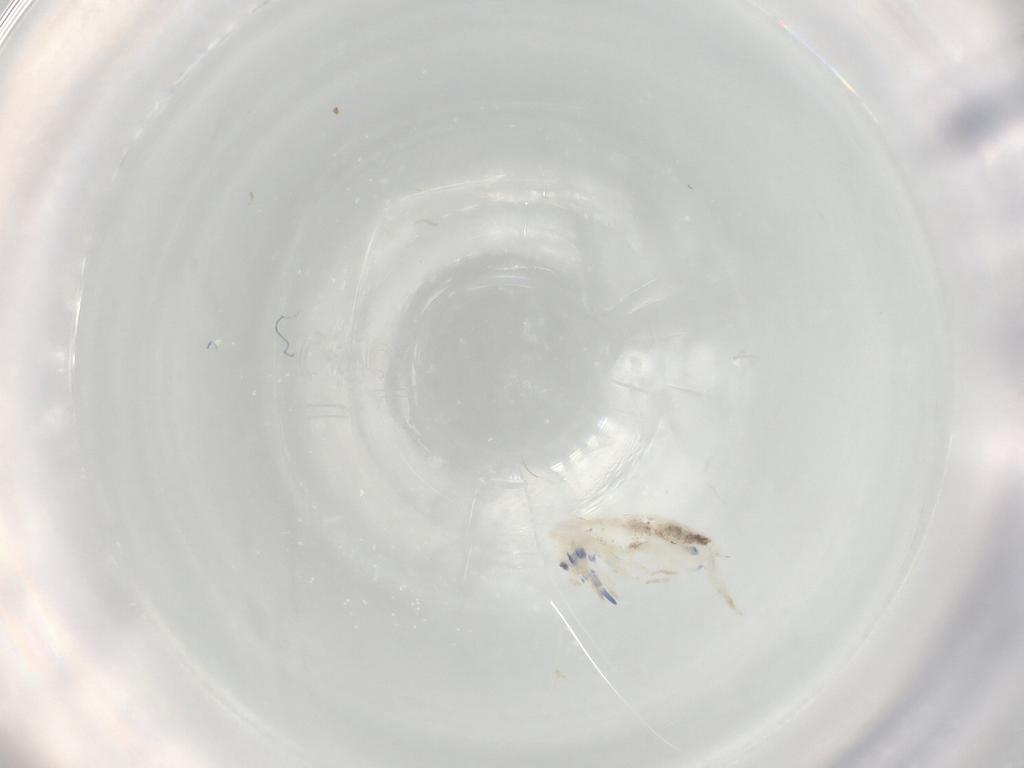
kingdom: Animalia
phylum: Arthropoda
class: Collembola
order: Entomobryomorpha
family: Entomobryidae
